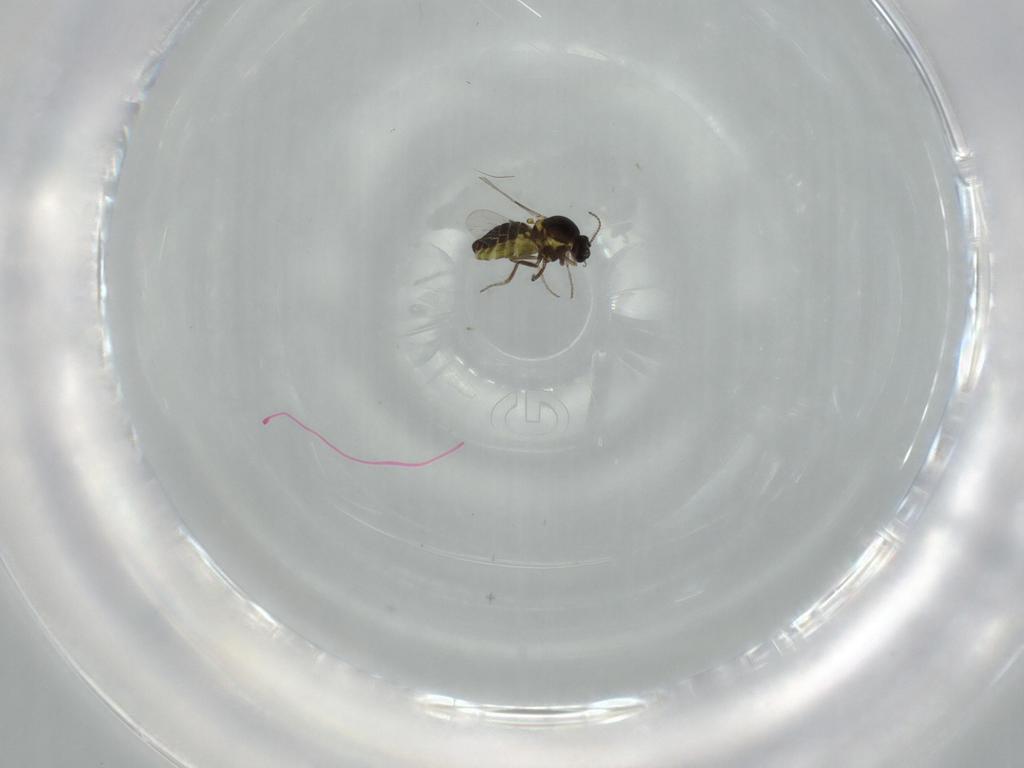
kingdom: Animalia
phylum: Arthropoda
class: Insecta
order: Diptera
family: Ceratopogonidae
